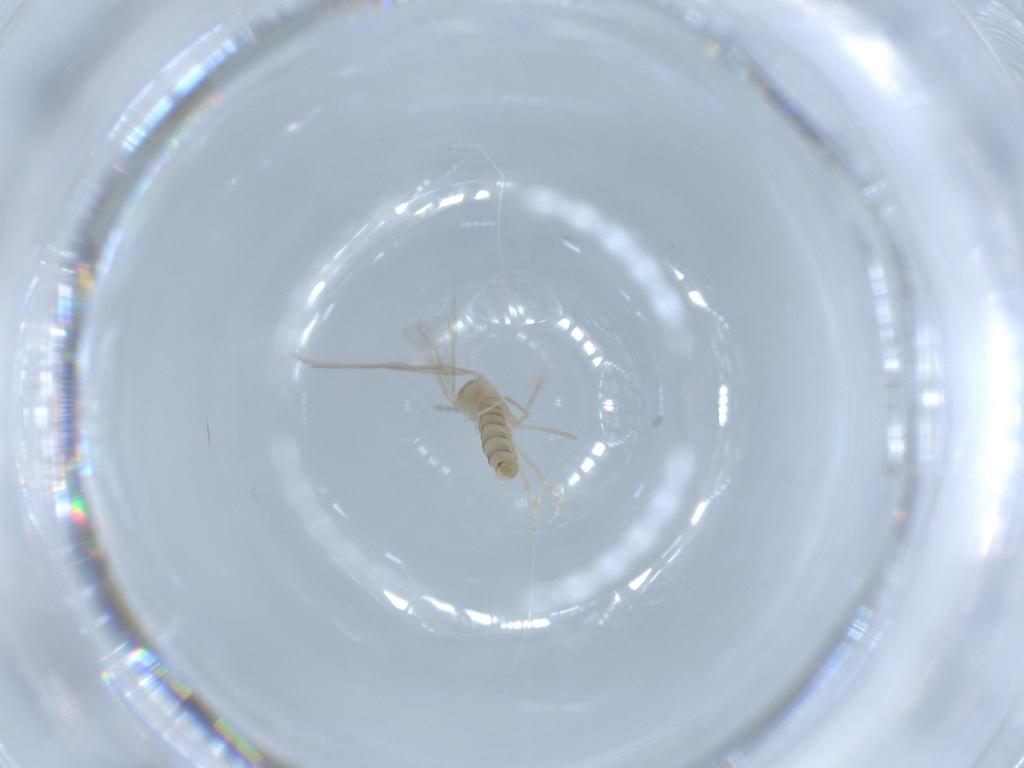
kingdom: Animalia
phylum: Arthropoda
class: Insecta
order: Diptera
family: Cecidomyiidae
